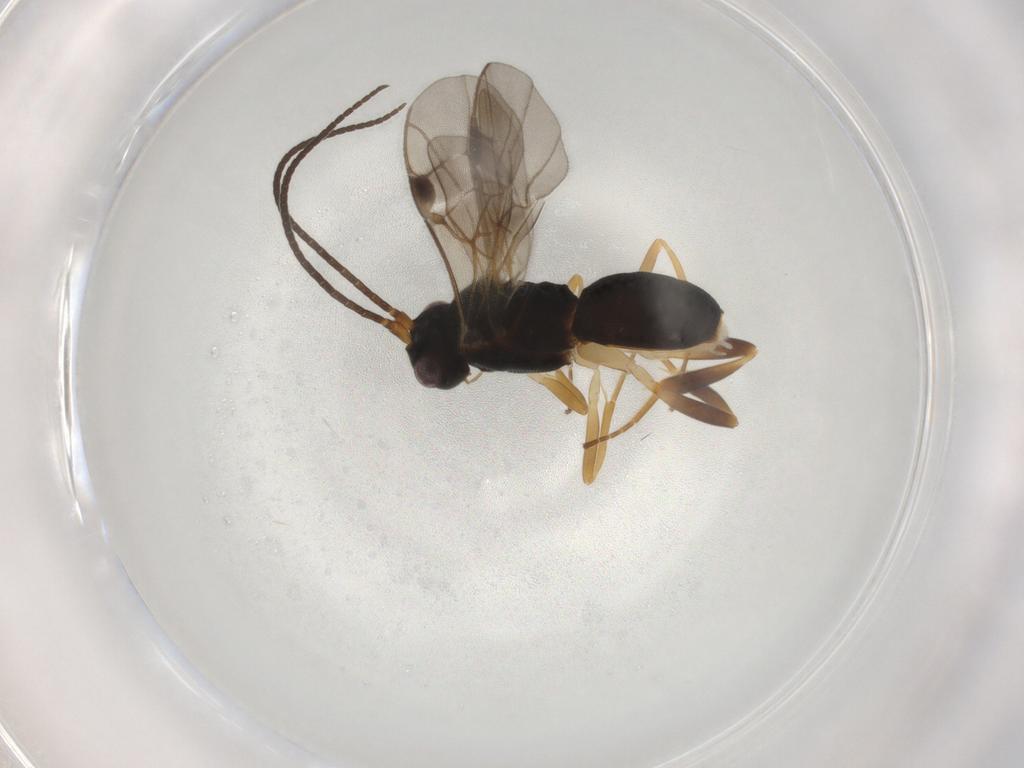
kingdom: Animalia
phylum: Arthropoda
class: Insecta
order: Hymenoptera
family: Braconidae
